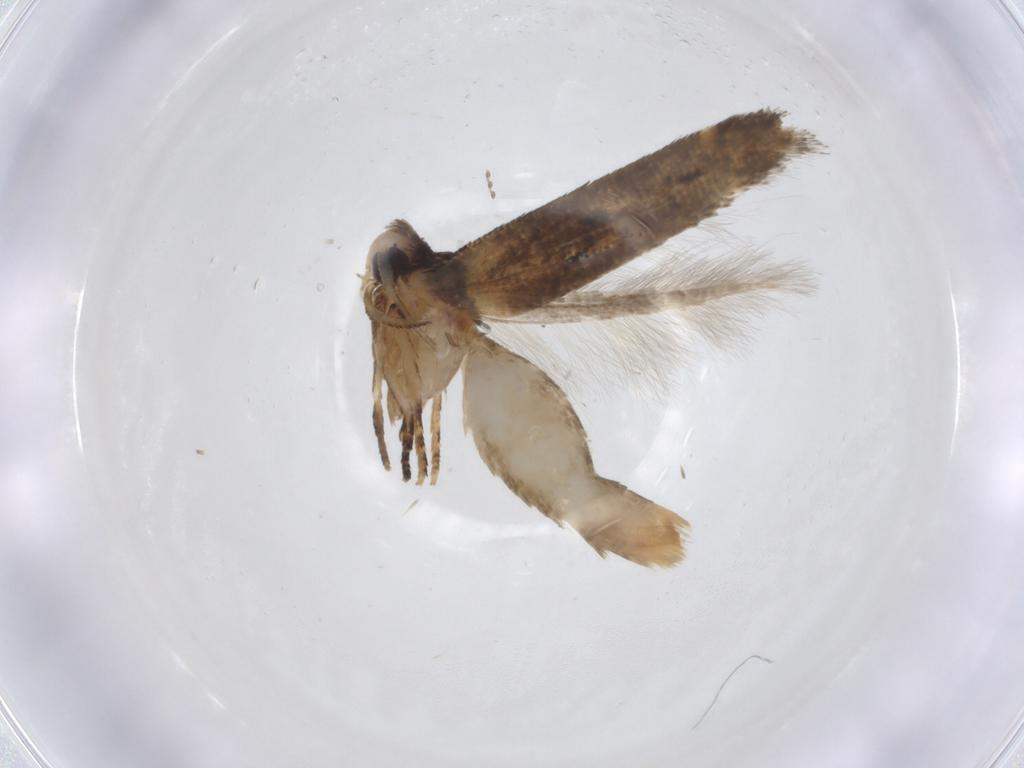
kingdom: Animalia
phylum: Arthropoda
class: Insecta
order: Lepidoptera
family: Gelechiidae
